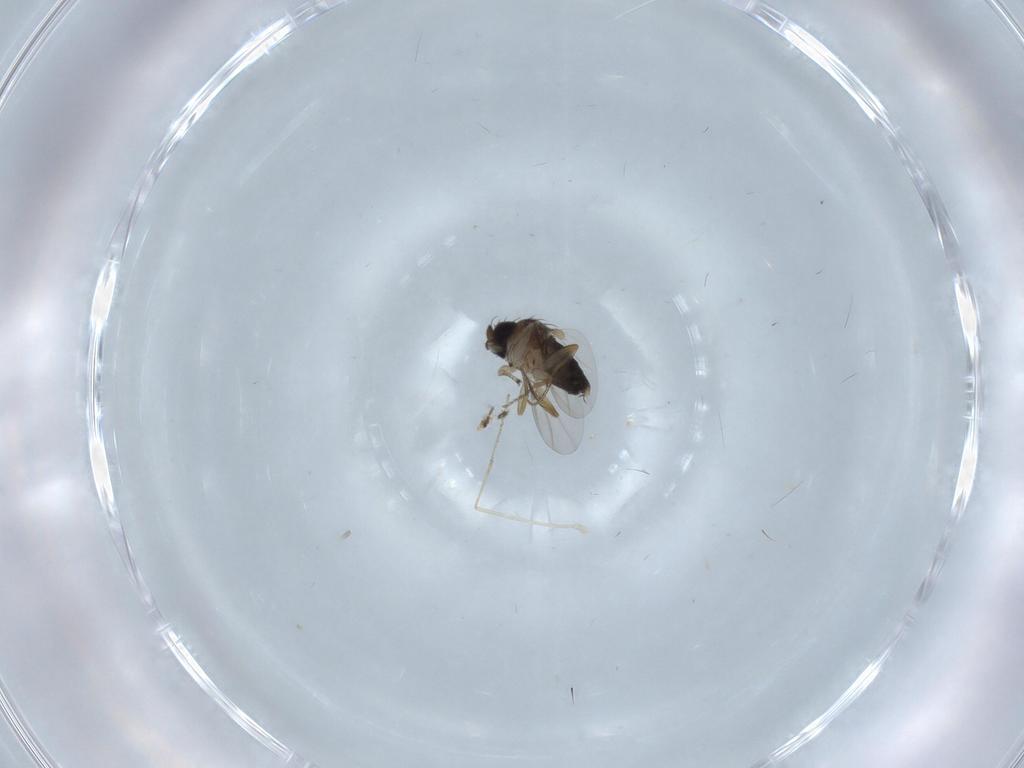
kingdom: Animalia
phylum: Arthropoda
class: Insecta
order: Diptera
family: Cecidomyiidae
